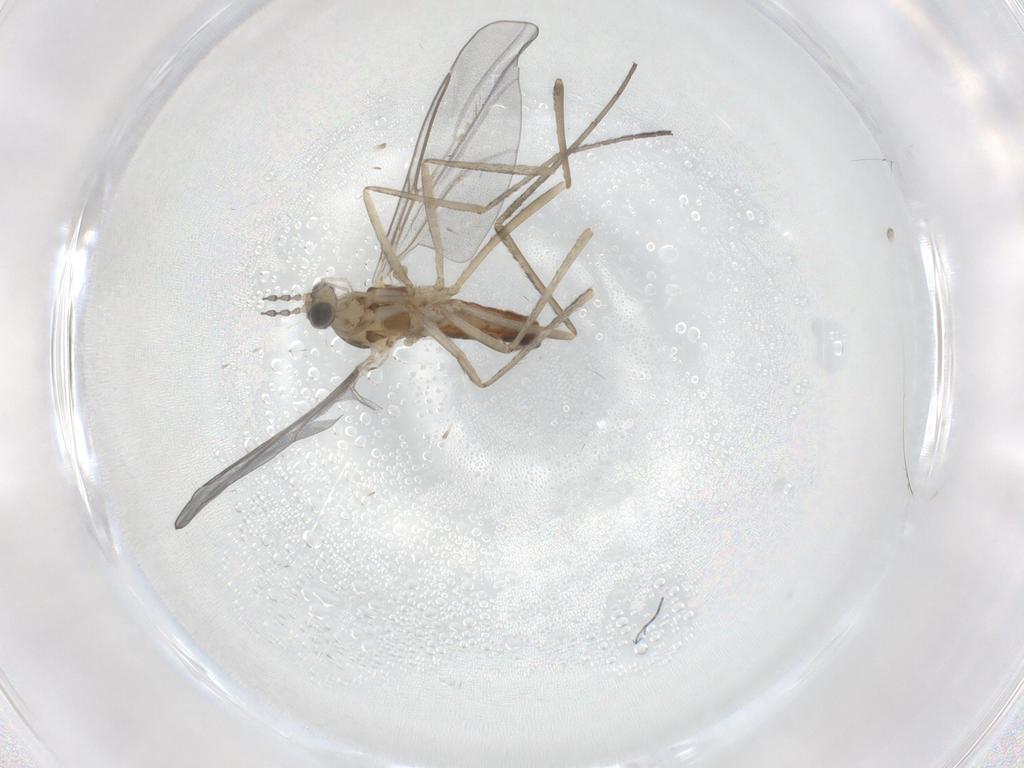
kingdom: Animalia
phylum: Arthropoda
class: Insecta
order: Diptera
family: Cecidomyiidae
